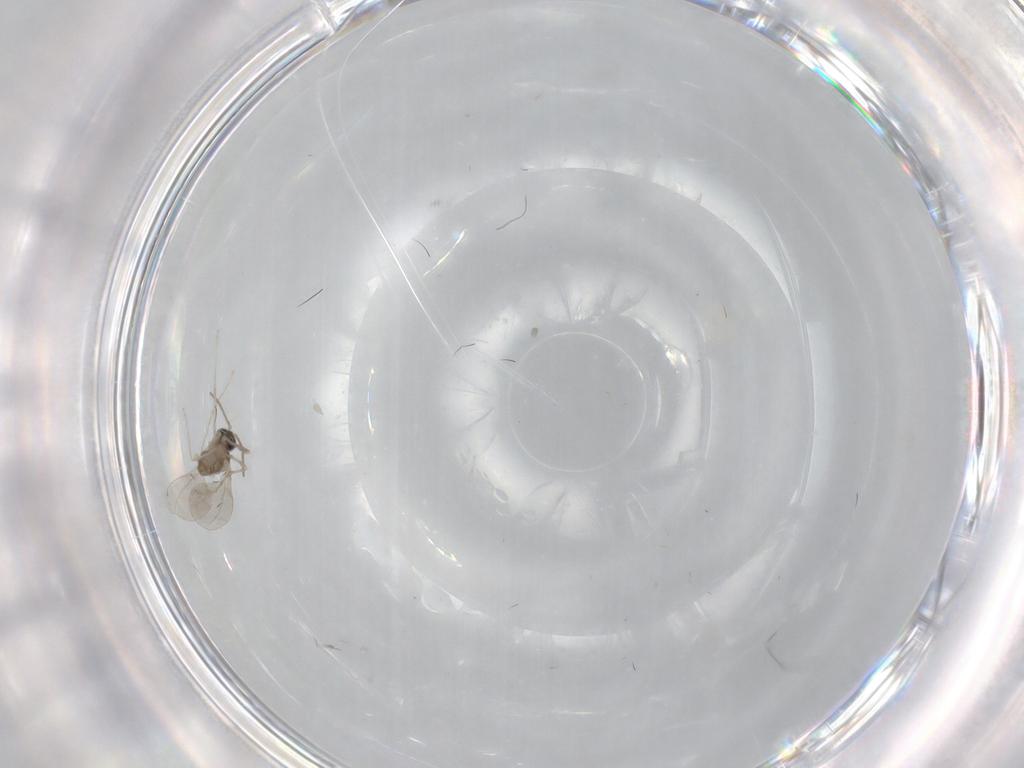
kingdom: Animalia
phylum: Arthropoda
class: Insecta
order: Diptera
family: Cecidomyiidae
